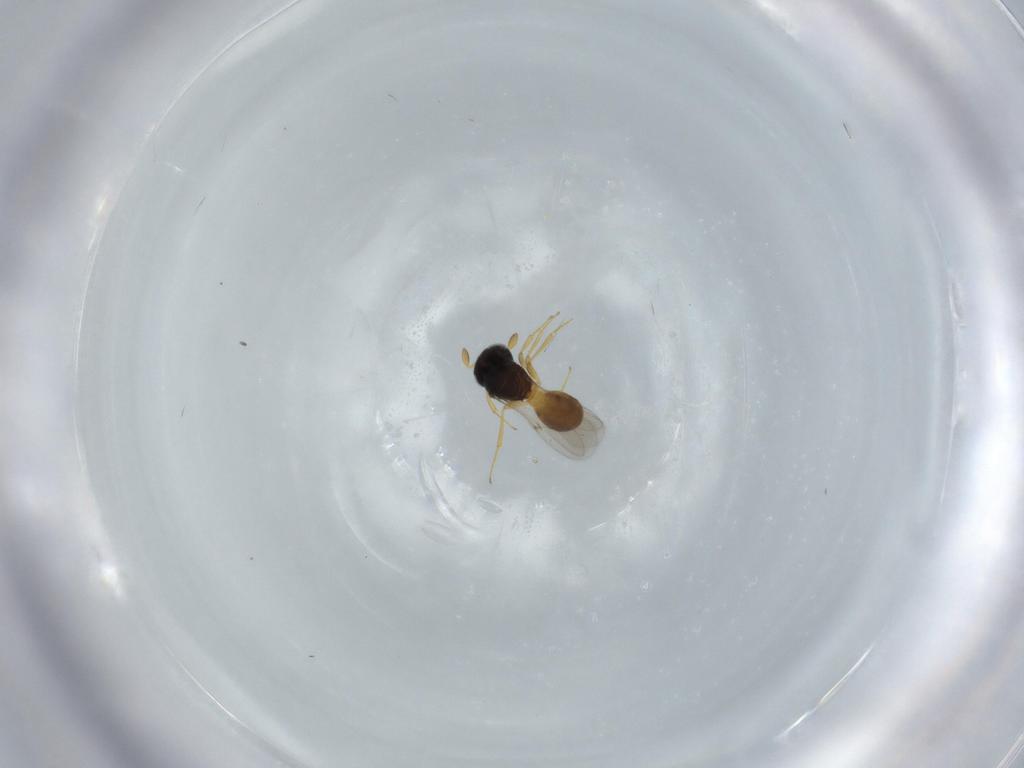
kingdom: Animalia
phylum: Arthropoda
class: Insecta
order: Hymenoptera
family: Scelionidae
